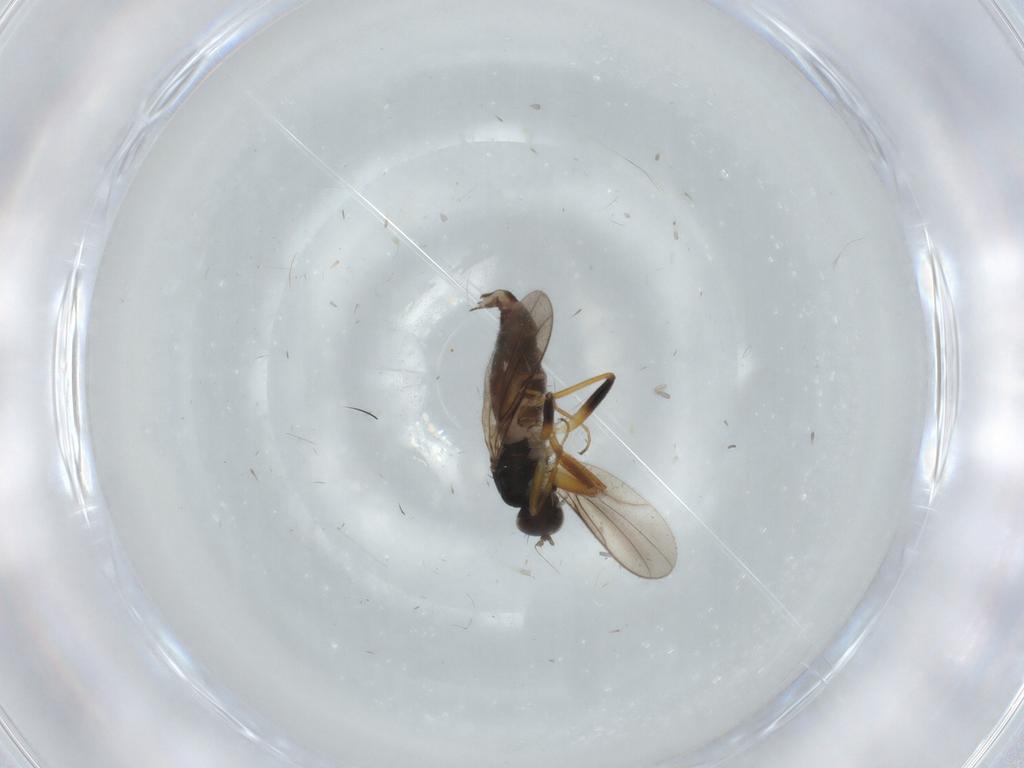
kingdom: Animalia
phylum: Arthropoda
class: Insecta
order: Diptera
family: Hybotidae
